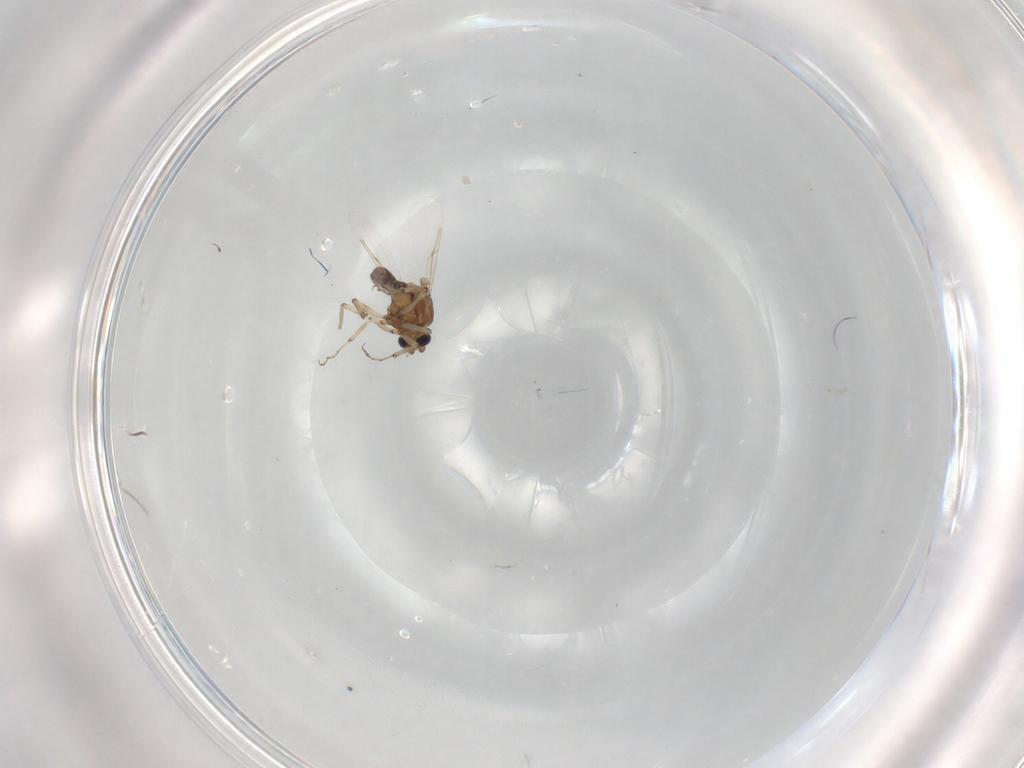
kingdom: Animalia
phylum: Arthropoda
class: Insecta
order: Diptera
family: Ceratopogonidae
